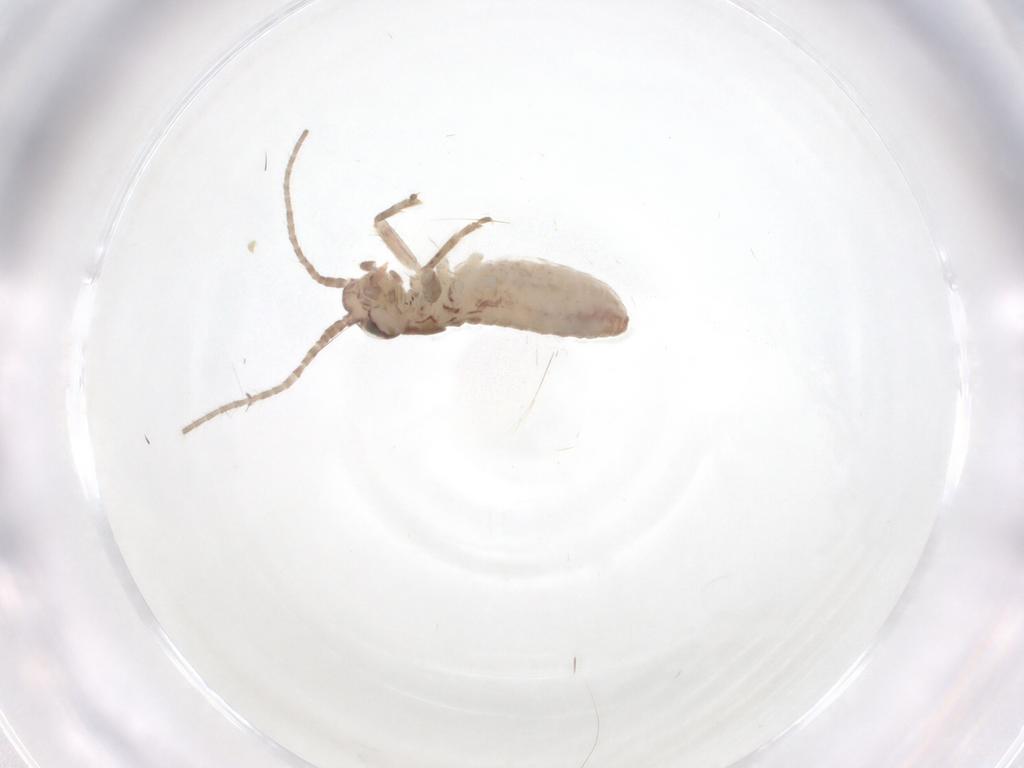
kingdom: Animalia
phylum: Arthropoda
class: Insecta
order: Orthoptera
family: Mogoplistidae
